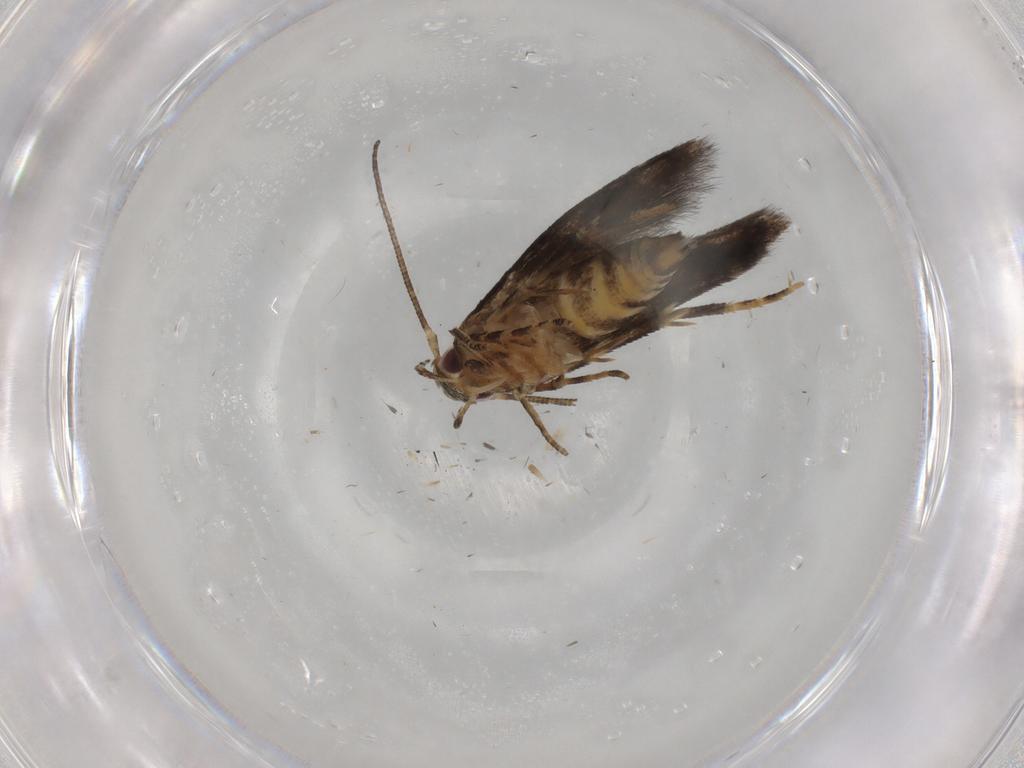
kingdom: Animalia
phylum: Arthropoda
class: Insecta
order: Lepidoptera
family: Momphidae
